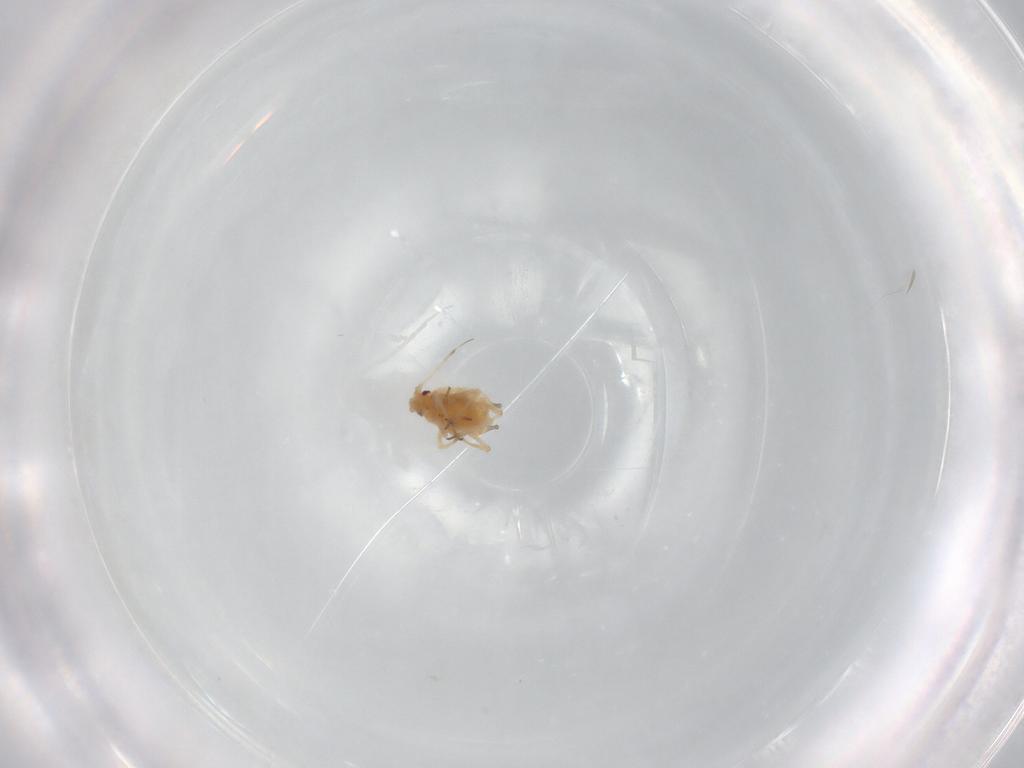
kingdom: Animalia
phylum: Arthropoda
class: Insecta
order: Hemiptera
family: Aphididae
